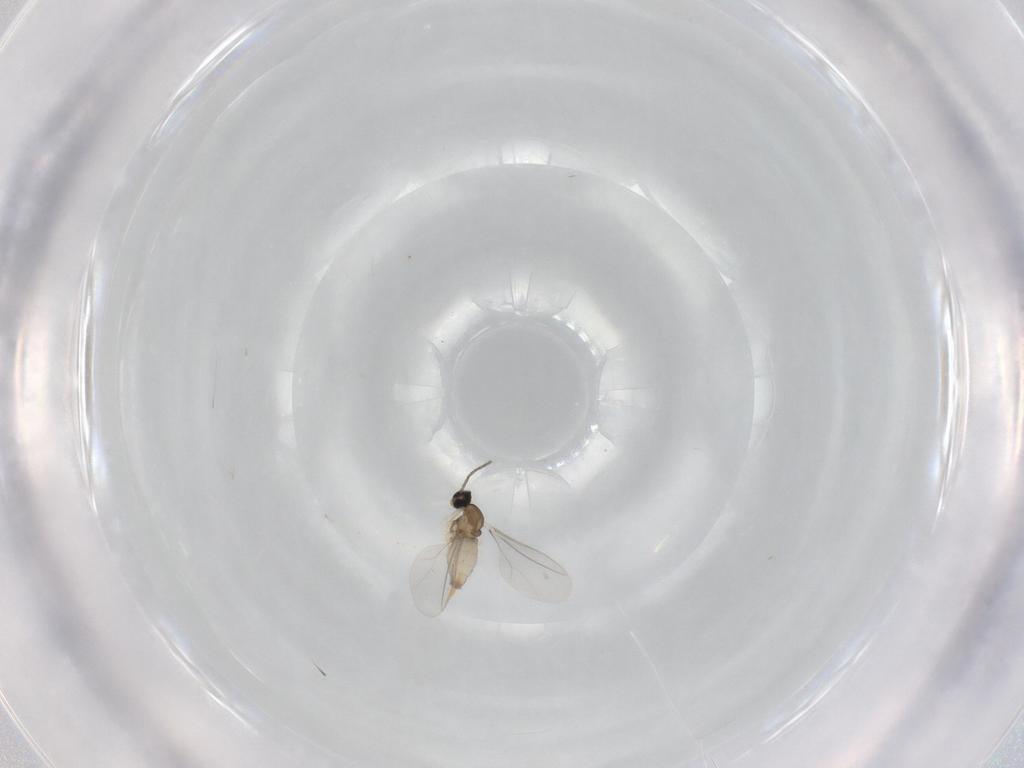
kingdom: Animalia
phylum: Arthropoda
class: Insecta
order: Diptera
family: Cecidomyiidae
